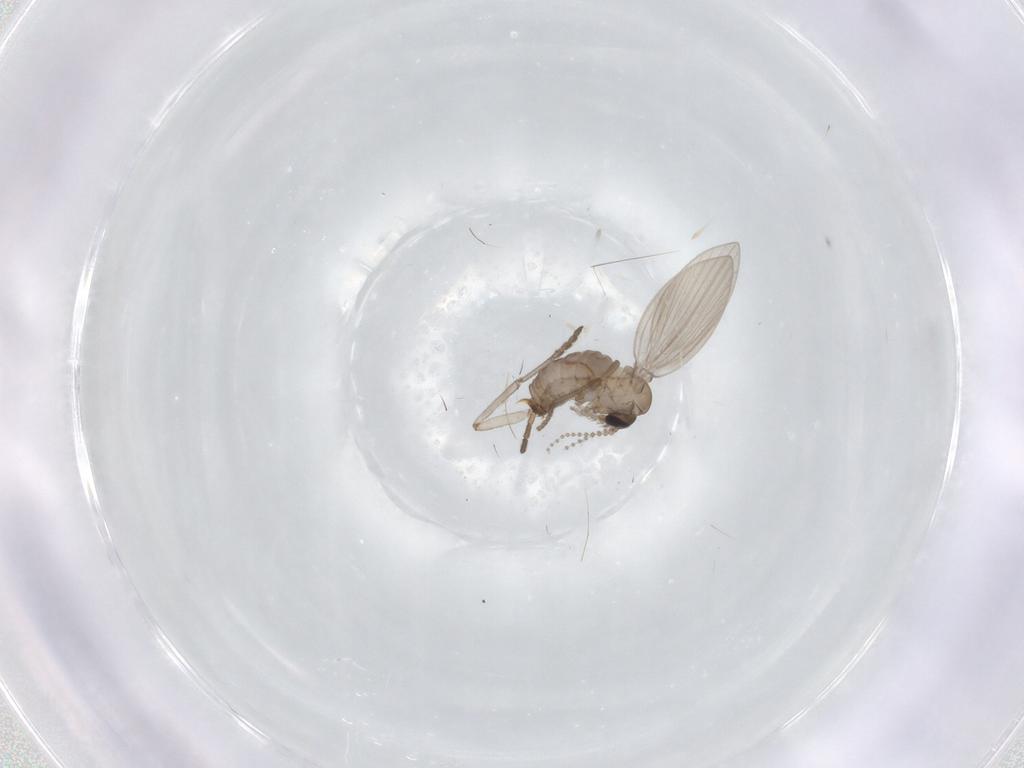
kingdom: Animalia
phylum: Arthropoda
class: Insecta
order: Diptera
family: Psychodidae
